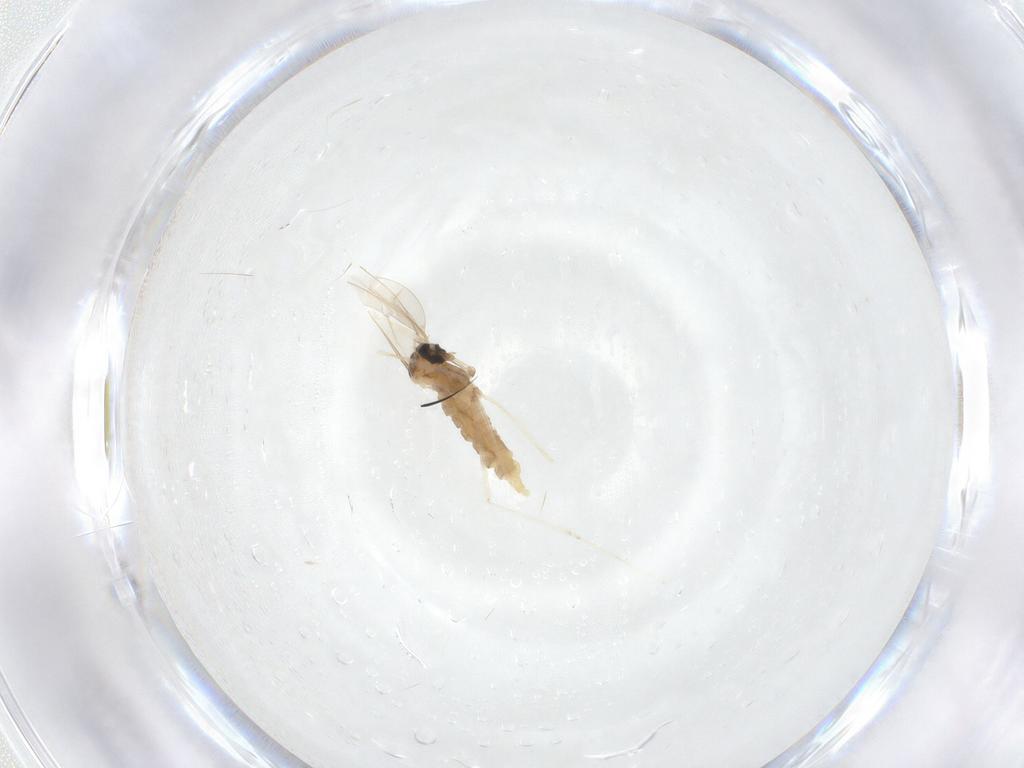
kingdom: Animalia
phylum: Arthropoda
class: Insecta
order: Diptera
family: Cecidomyiidae
